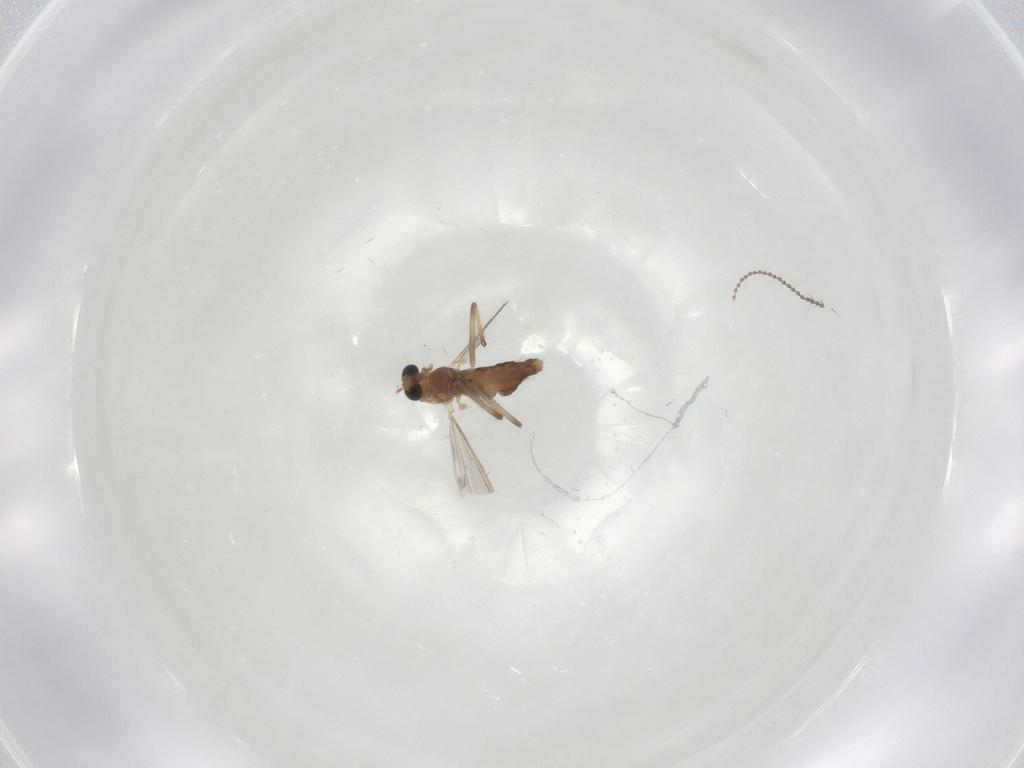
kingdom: Animalia
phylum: Arthropoda
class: Insecta
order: Diptera
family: Chironomidae
